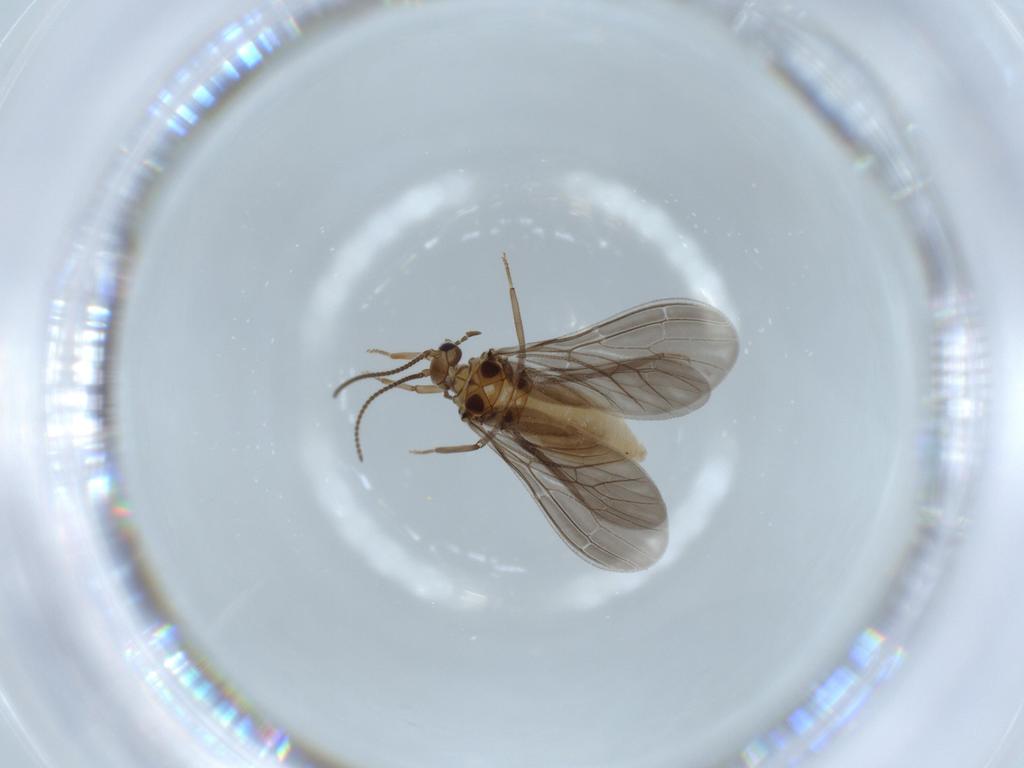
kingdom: Animalia
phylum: Arthropoda
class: Insecta
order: Neuroptera
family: Coniopterygidae
